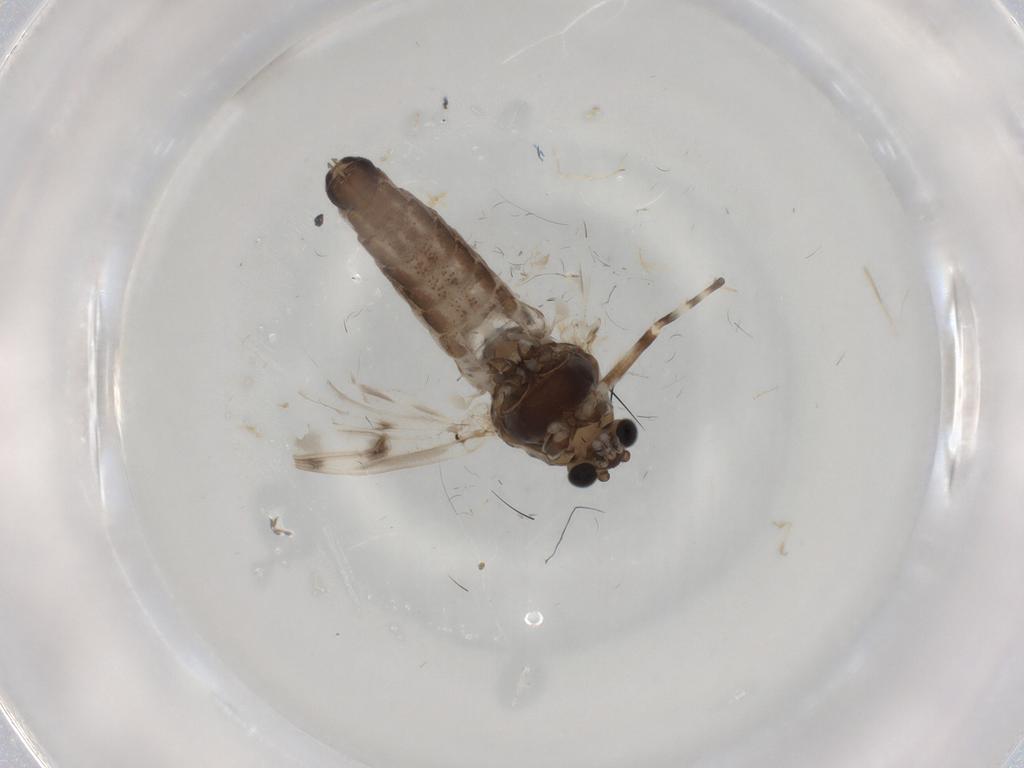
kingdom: Animalia
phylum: Arthropoda
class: Insecta
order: Diptera
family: Chironomidae
